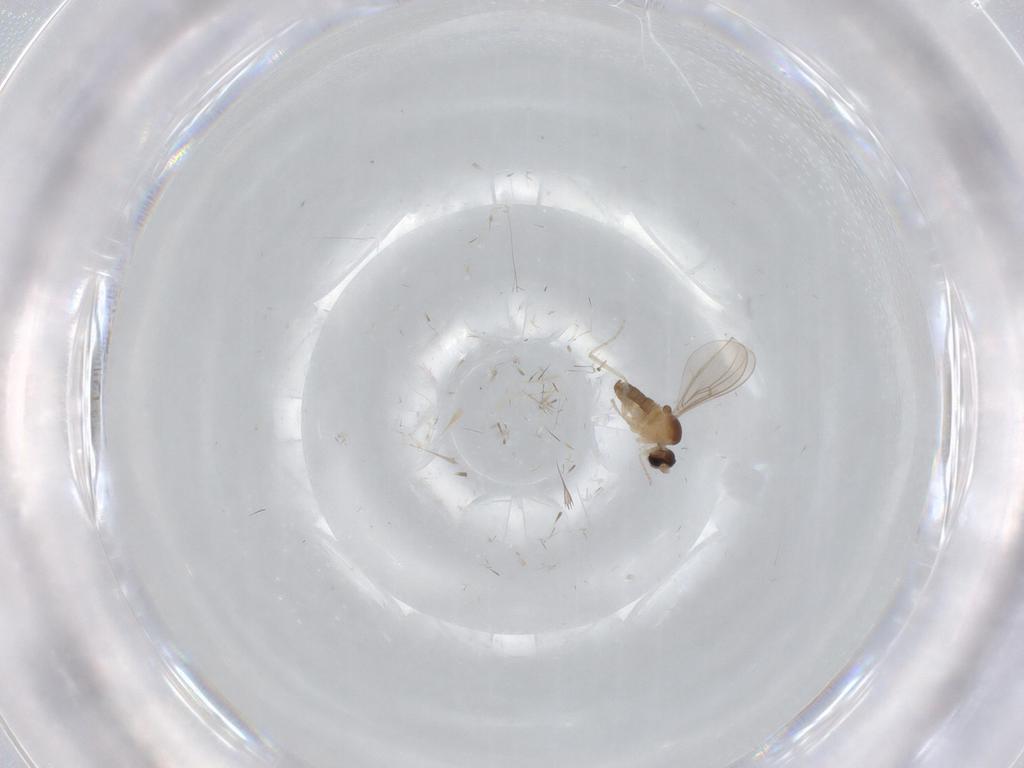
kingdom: Animalia
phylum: Arthropoda
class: Insecta
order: Diptera
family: Cecidomyiidae
